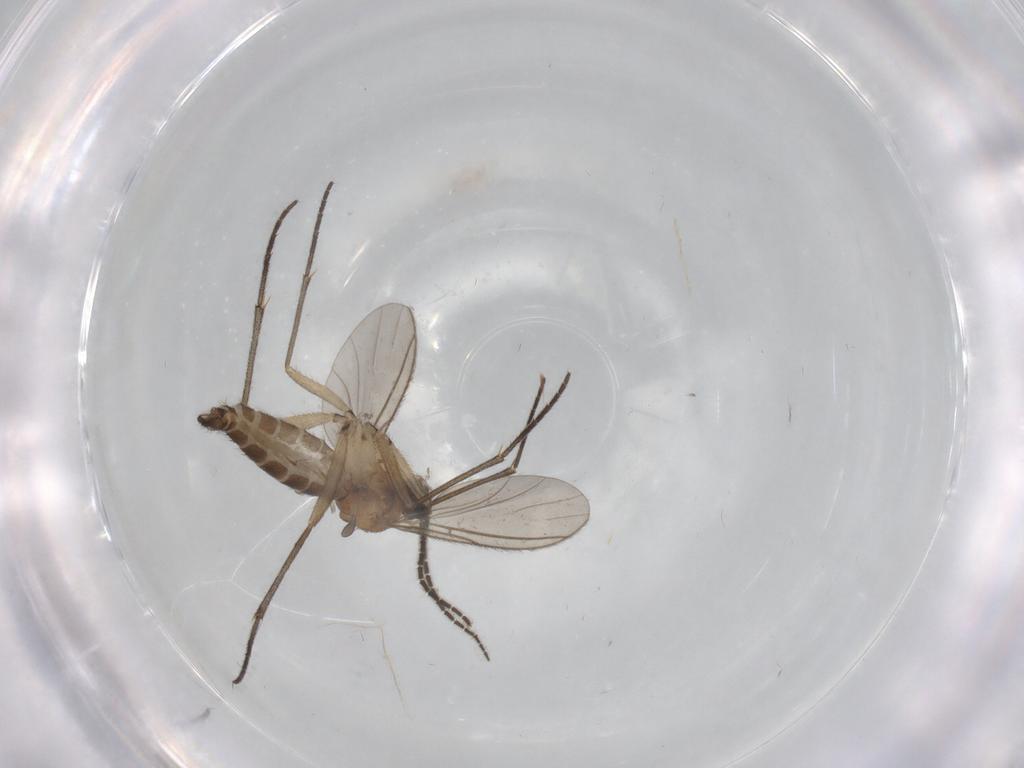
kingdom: Animalia
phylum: Arthropoda
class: Insecta
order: Diptera
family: Sciaridae
